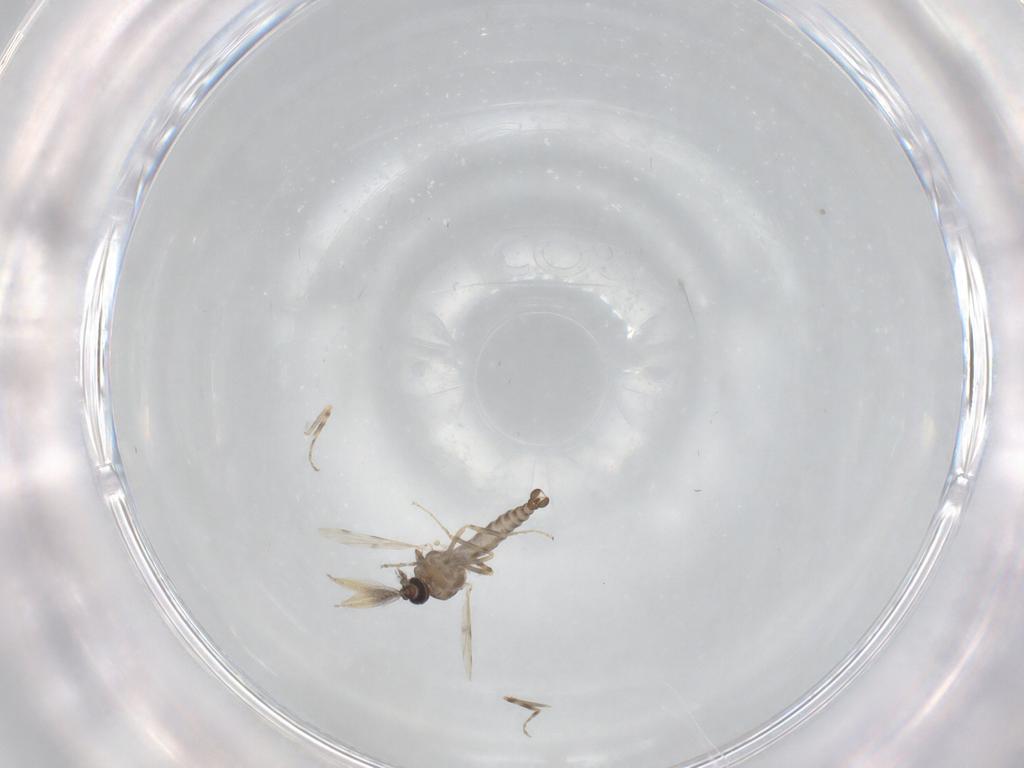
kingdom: Animalia
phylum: Arthropoda
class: Insecta
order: Diptera
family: Ceratopogonidae
